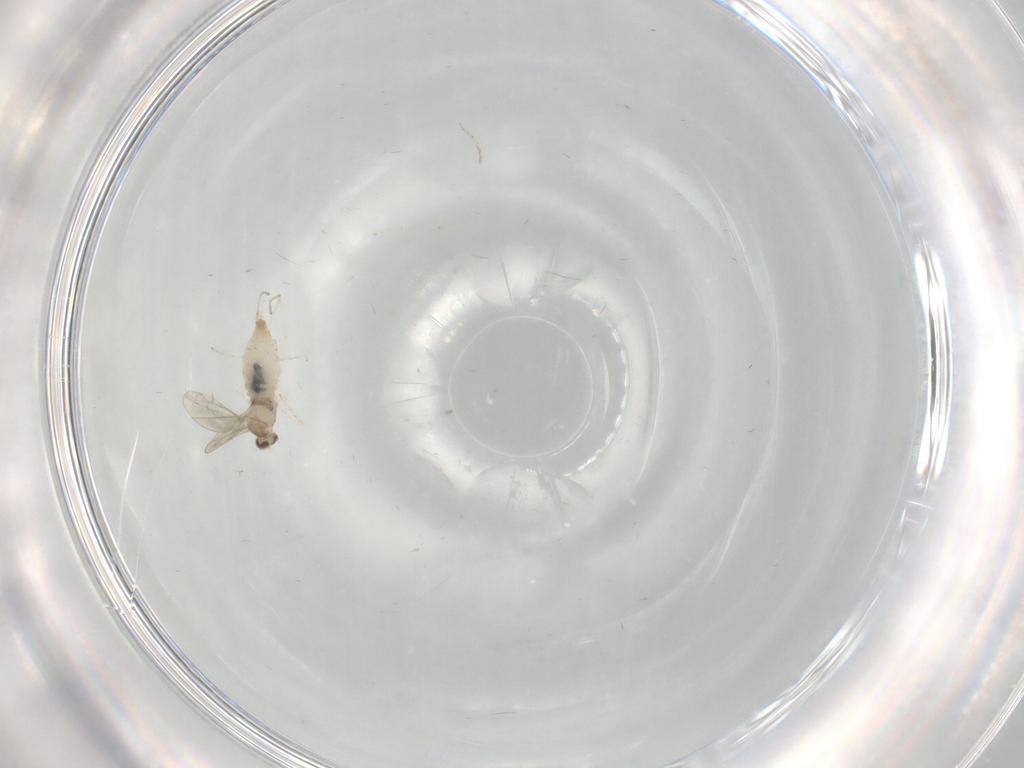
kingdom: Animalia
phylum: Arthropoda
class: Insecta
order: Diptera
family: Cecidomyiidae
